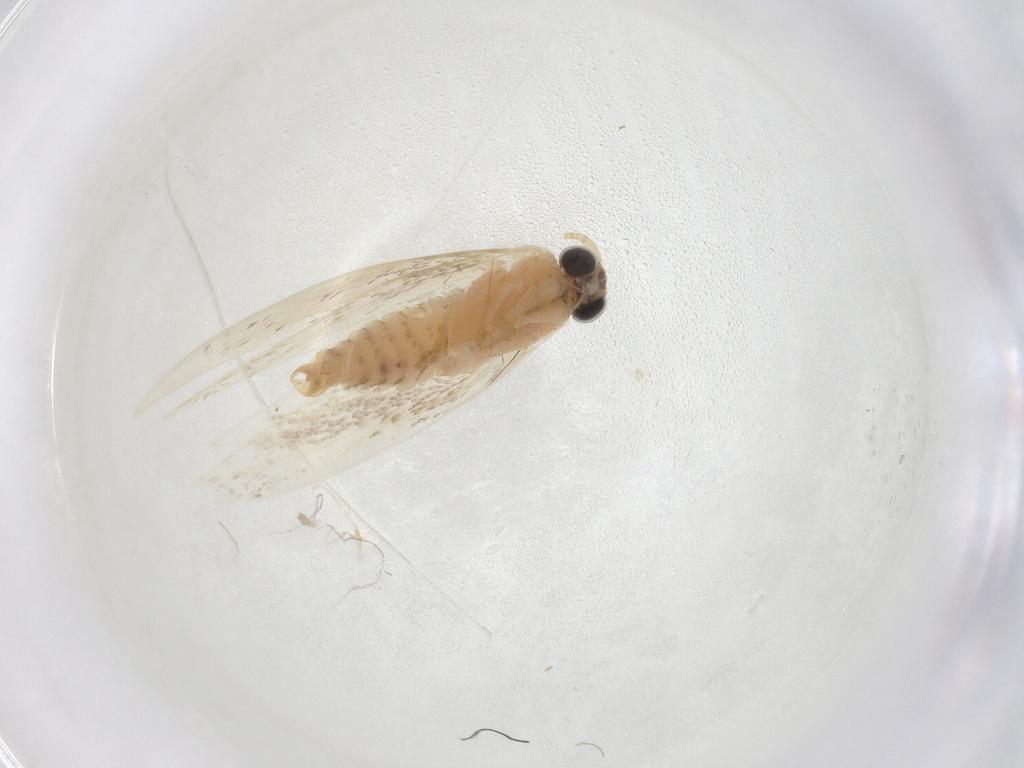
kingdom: Animalia
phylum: Arthropoda
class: Insecta
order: Lepidoptera
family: Crambidae
